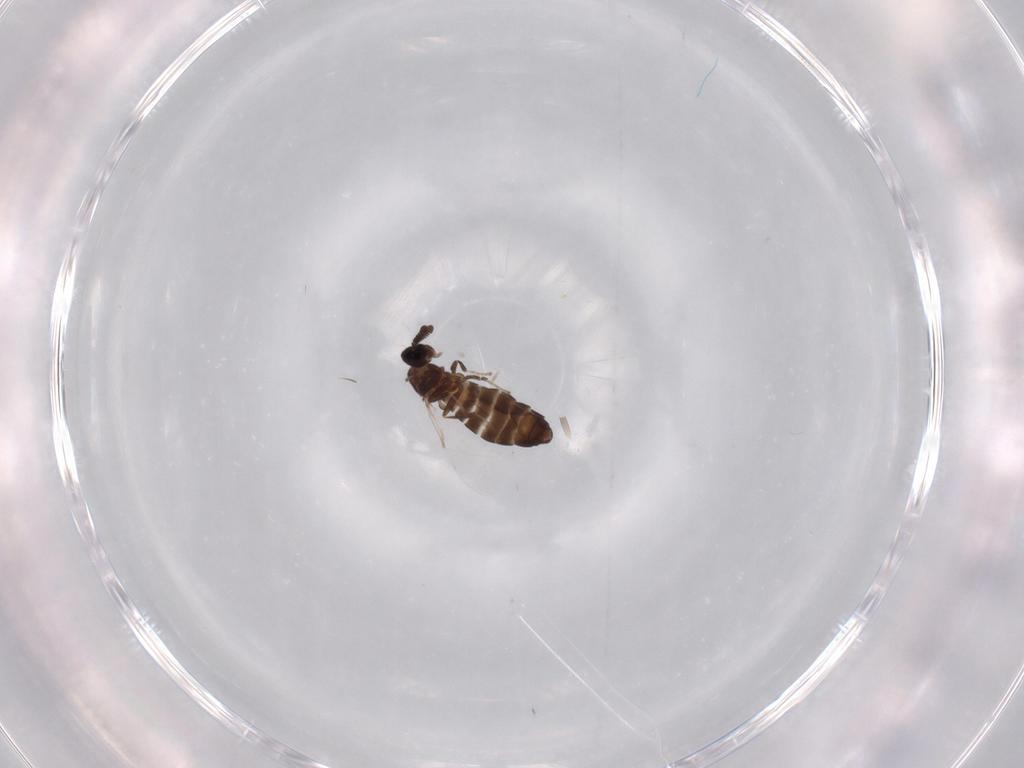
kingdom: Animalia
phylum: Arthropoda
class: Insecta
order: Diptera
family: Scatopsidae
